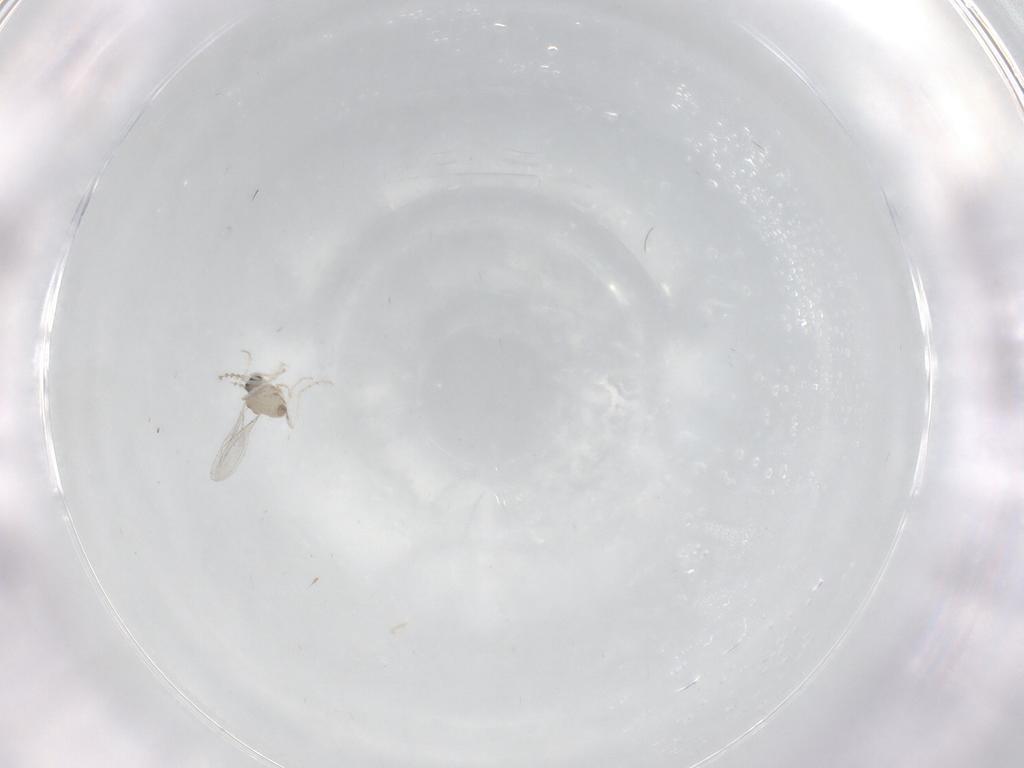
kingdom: Animalia
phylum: Arthropoda
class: Insecta
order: Diptera
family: Cecidomyiidae
